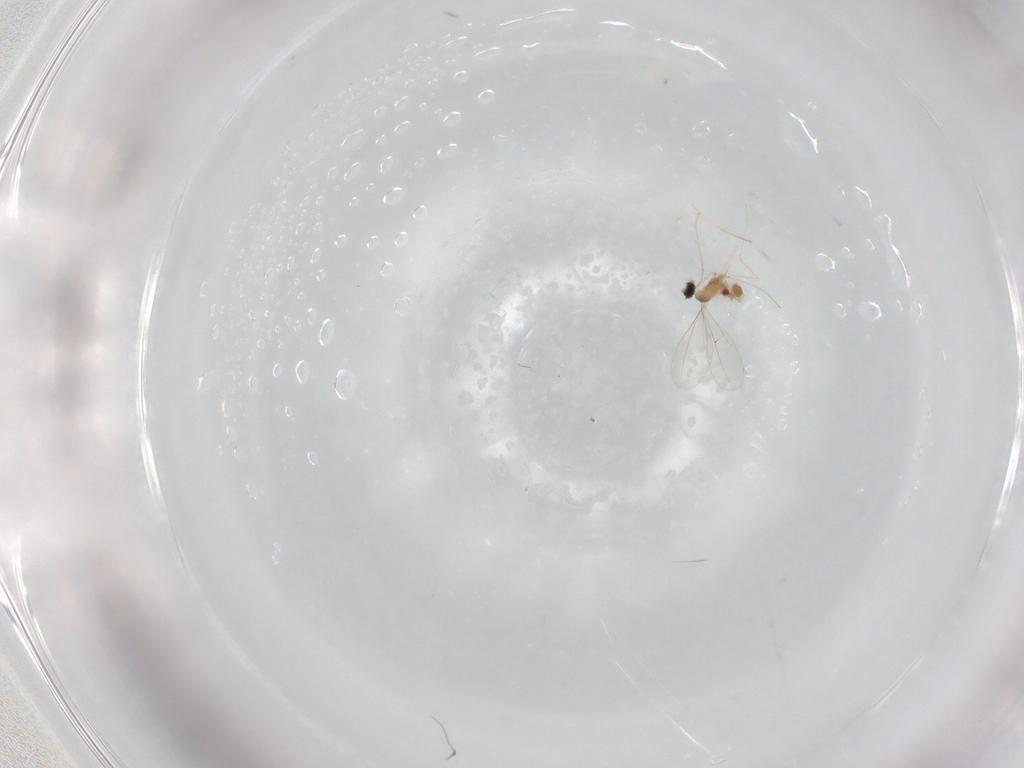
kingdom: Animalia
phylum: Arthropoda
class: Insecta
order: Diptera
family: Cecidomyiidae
